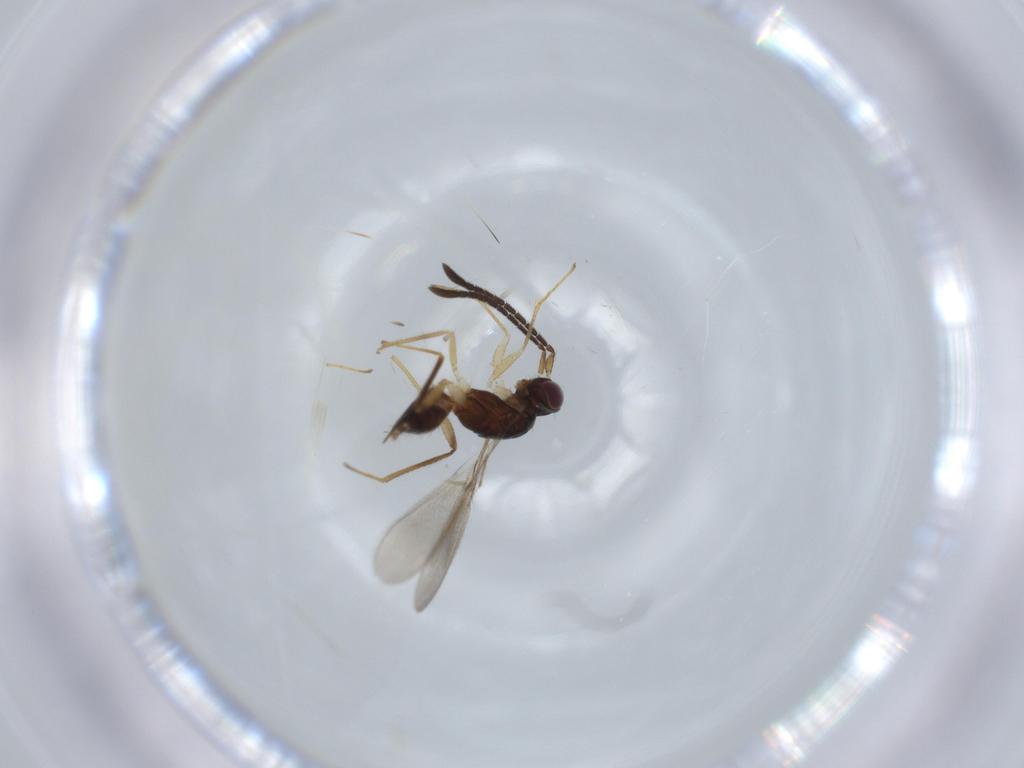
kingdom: Animalia
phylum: Arthropoda
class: Insecta
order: Hymenoptera
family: Mymaridae
